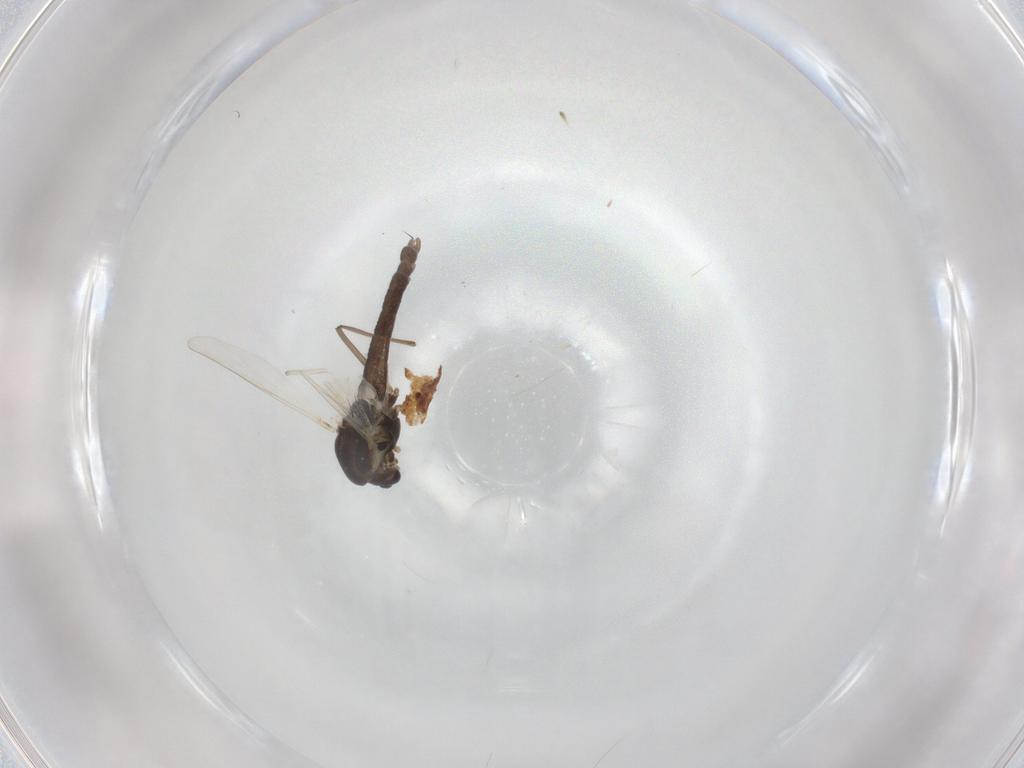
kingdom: Animalia
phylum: Arthropoda
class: Insecta
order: Diptera
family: Chironomidae
